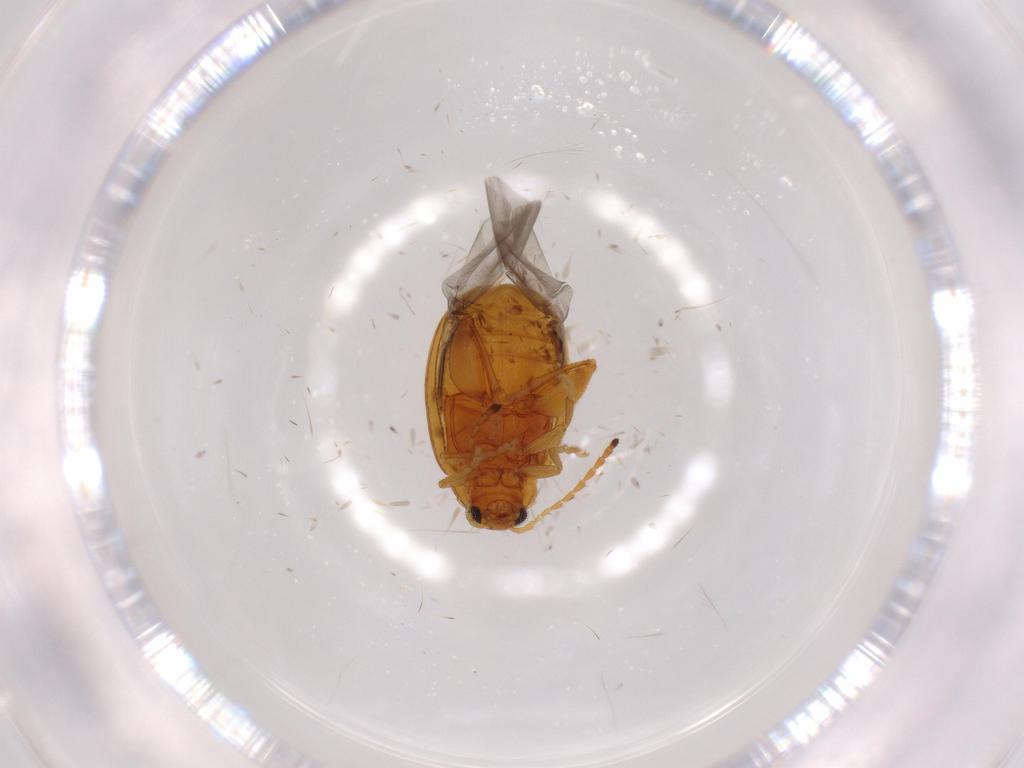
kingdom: Animalia
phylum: Arthropoda
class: Insecta
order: Coleoptera
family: Chrysomelidae
